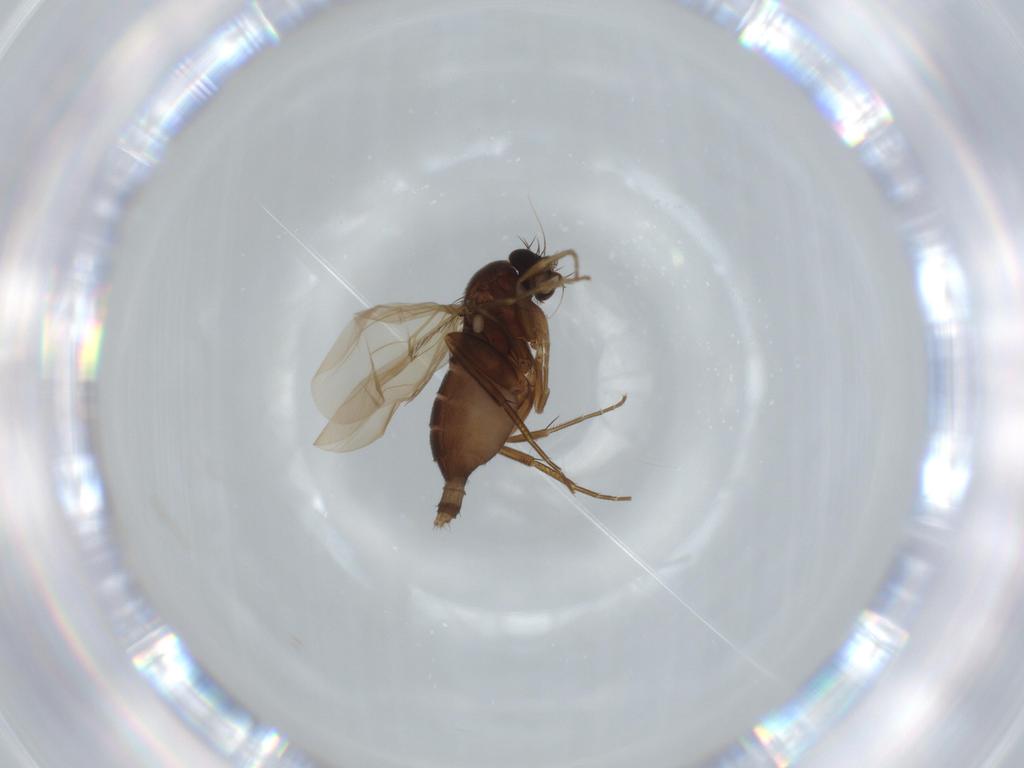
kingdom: Animalia
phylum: Arthropoda
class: Insecta
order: Diptera
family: Phoridae
